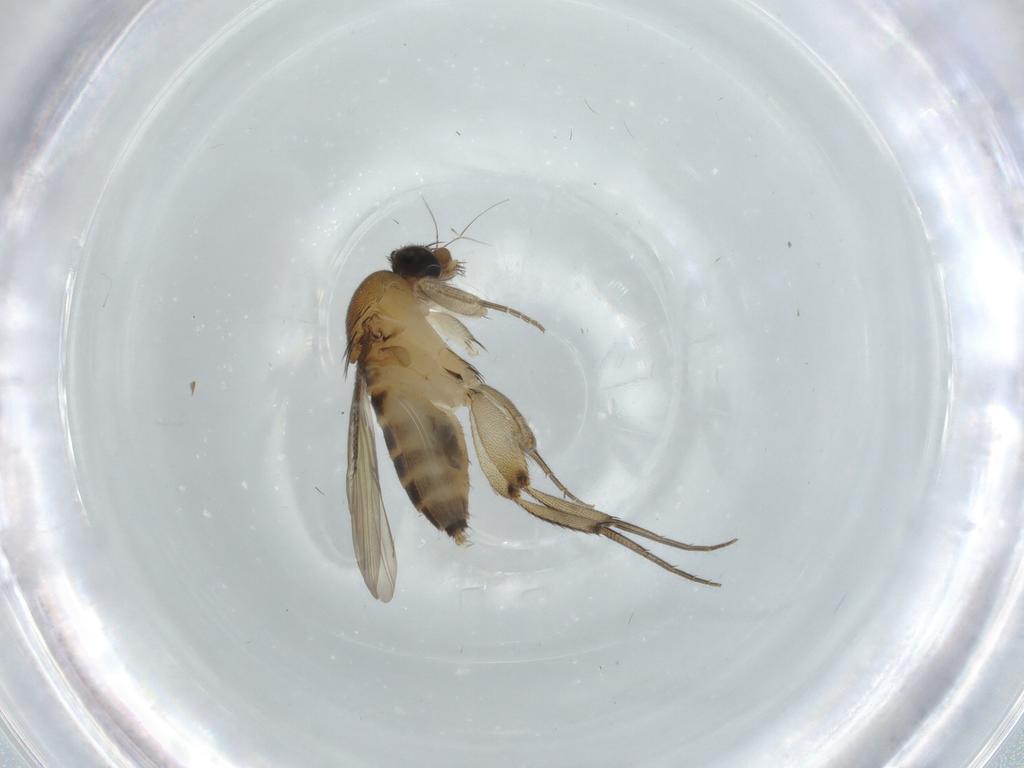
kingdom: Animalia
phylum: Arthropoda
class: Insecta
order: Diptera
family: Phoridae
